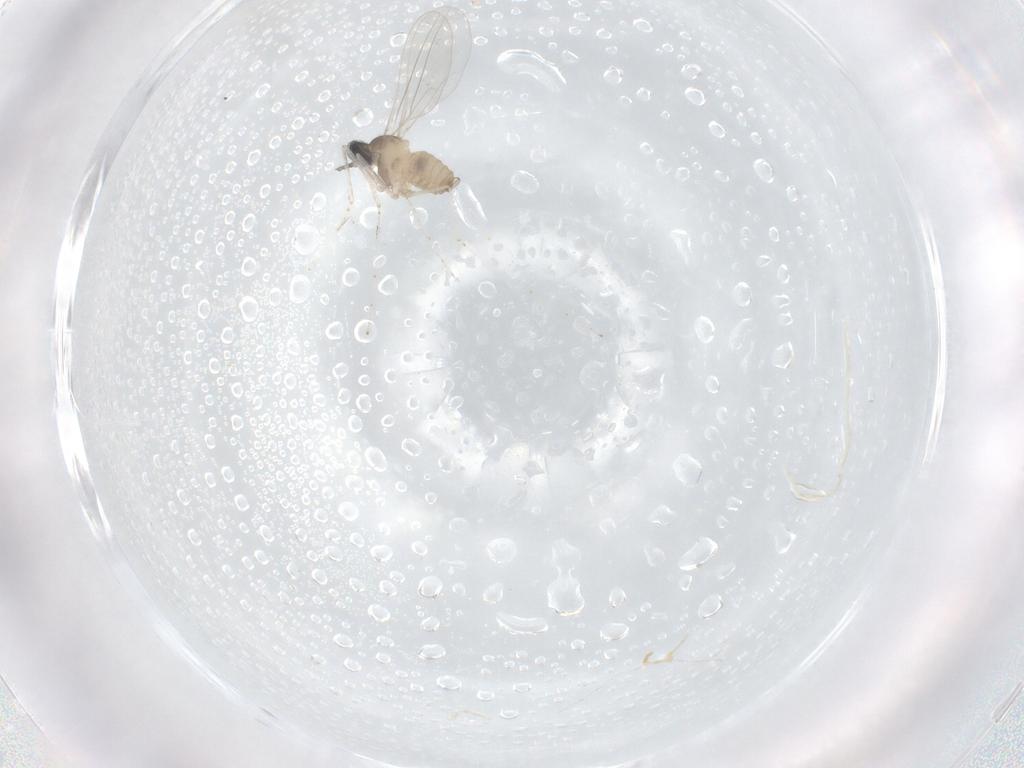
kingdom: Animalia
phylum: Arthropoda
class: Insecta
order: Diptera
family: Cecidomyiidae
